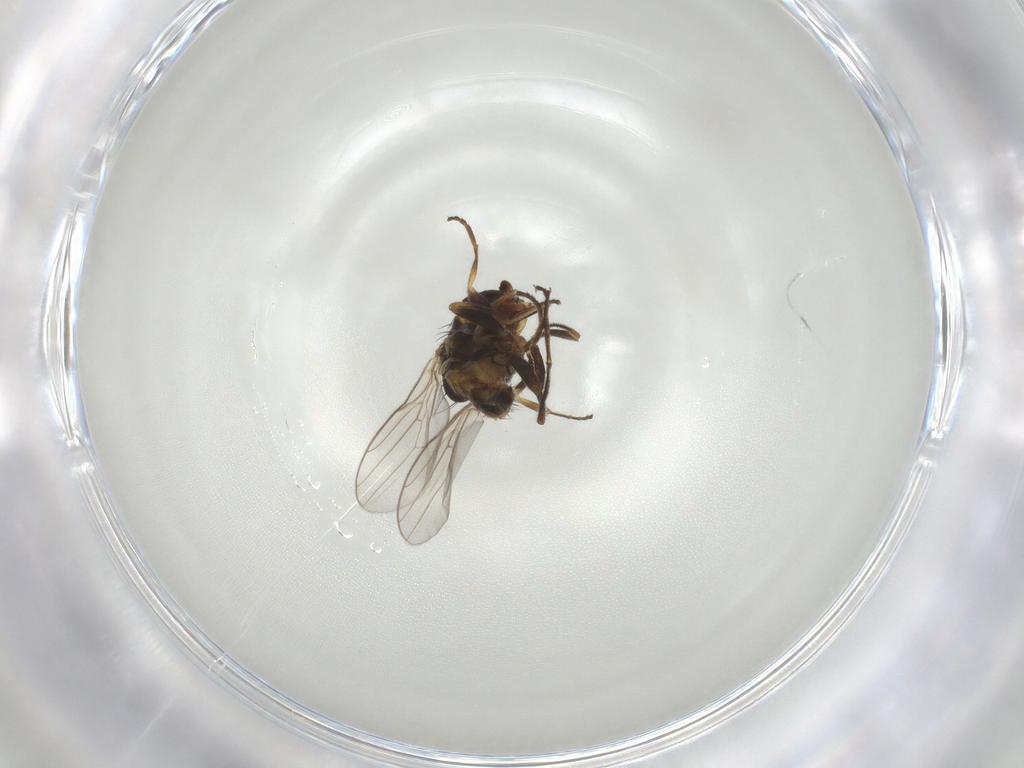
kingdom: Animalia
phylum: Arthropoda
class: Insecta
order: Diptera
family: Chloropidae
